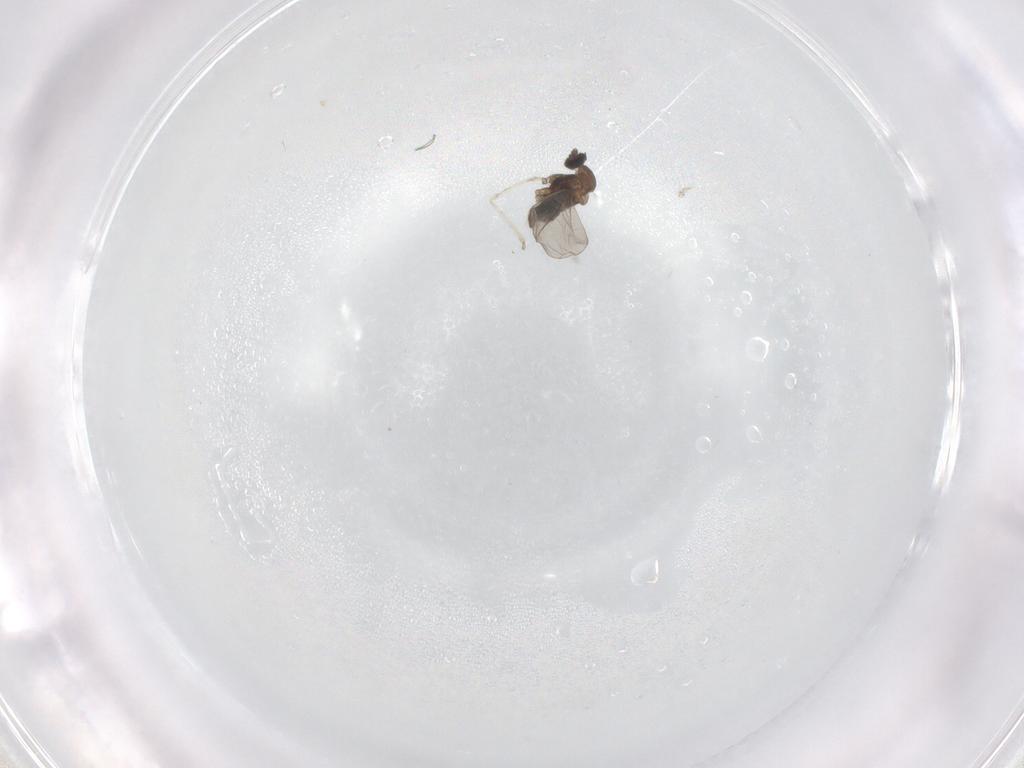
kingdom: Animalia
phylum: Arthropoda
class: Insecta
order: Diptera
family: Cecidomyiidae
